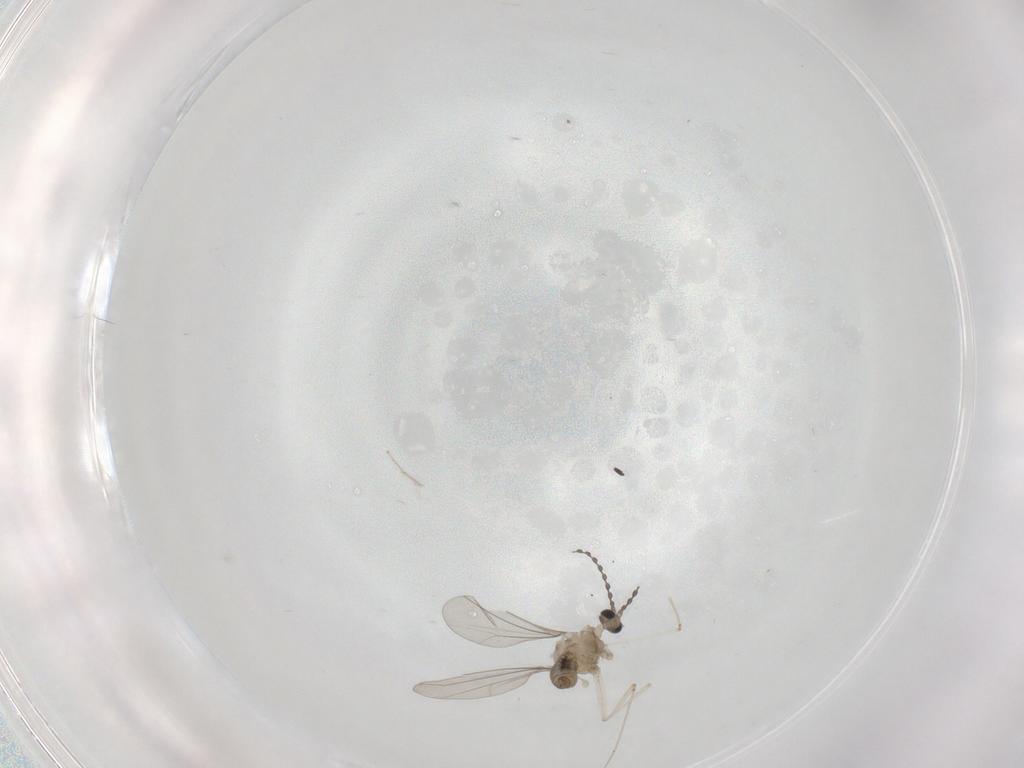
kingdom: Animalia
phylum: Arthropoda
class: Insecta
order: Diptera
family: Cecidomyiidae
